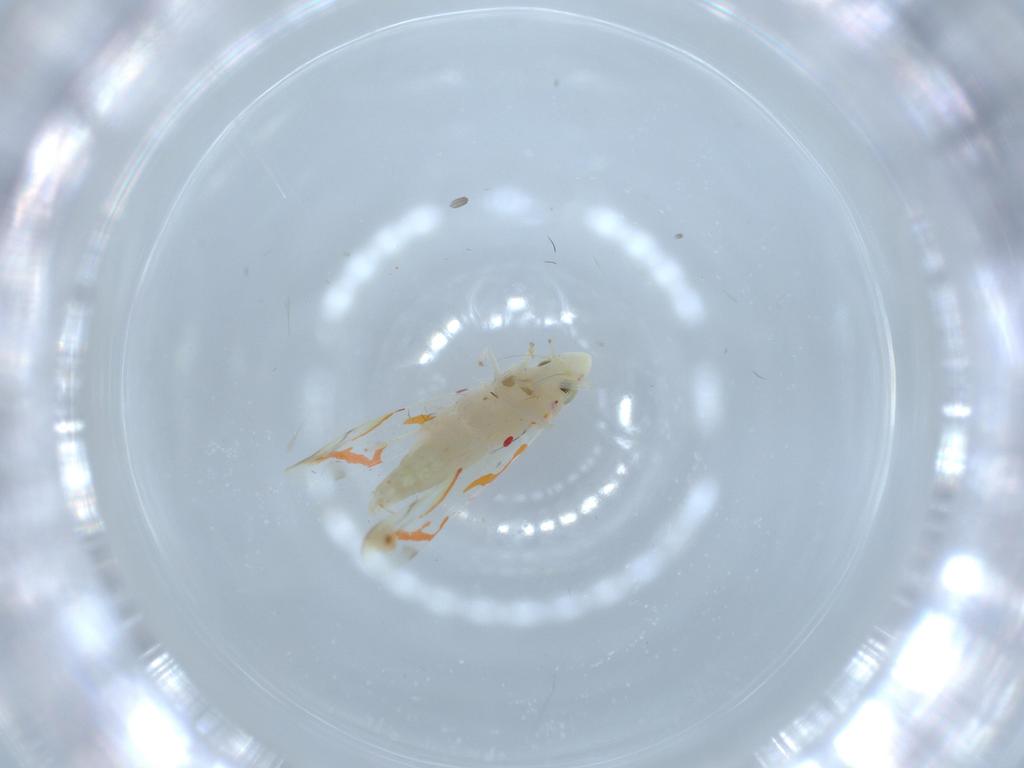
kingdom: Animalia
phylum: Arthropoda
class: Insecta
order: Hemiptera
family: Cicadellidae
